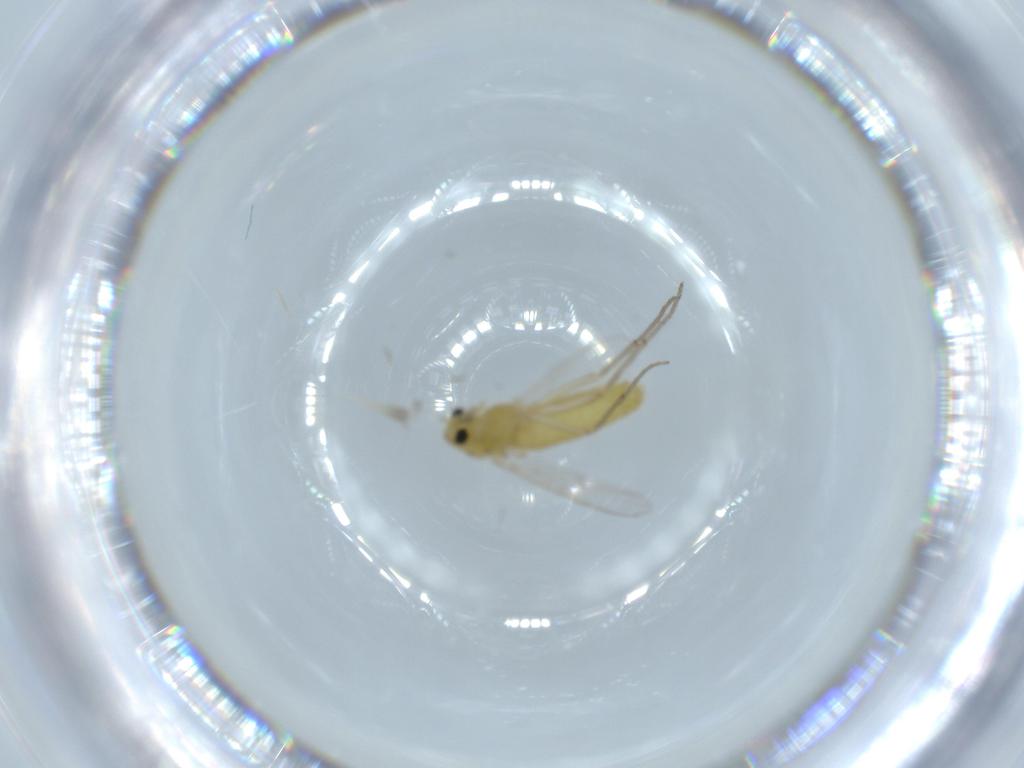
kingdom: Animalia
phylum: Arthropoda
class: Insecta
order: Diptera
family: Chironomidae
